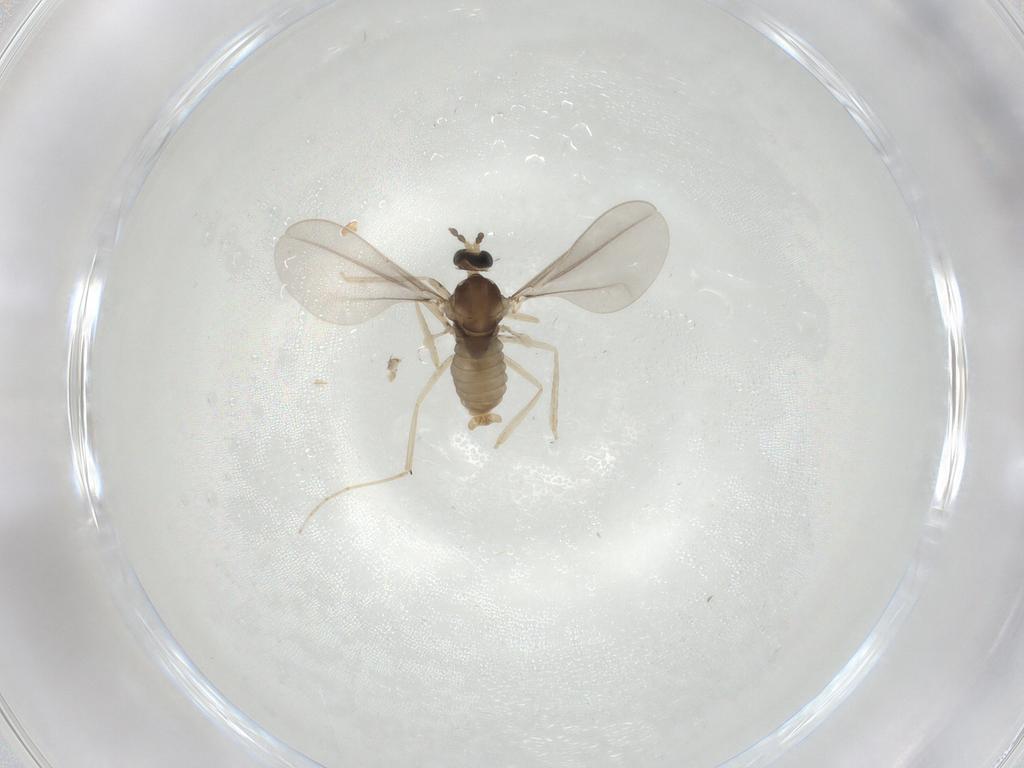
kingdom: Animalia
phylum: Arthropoda
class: Insecta
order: Diptera
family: Cecidomyiidae
